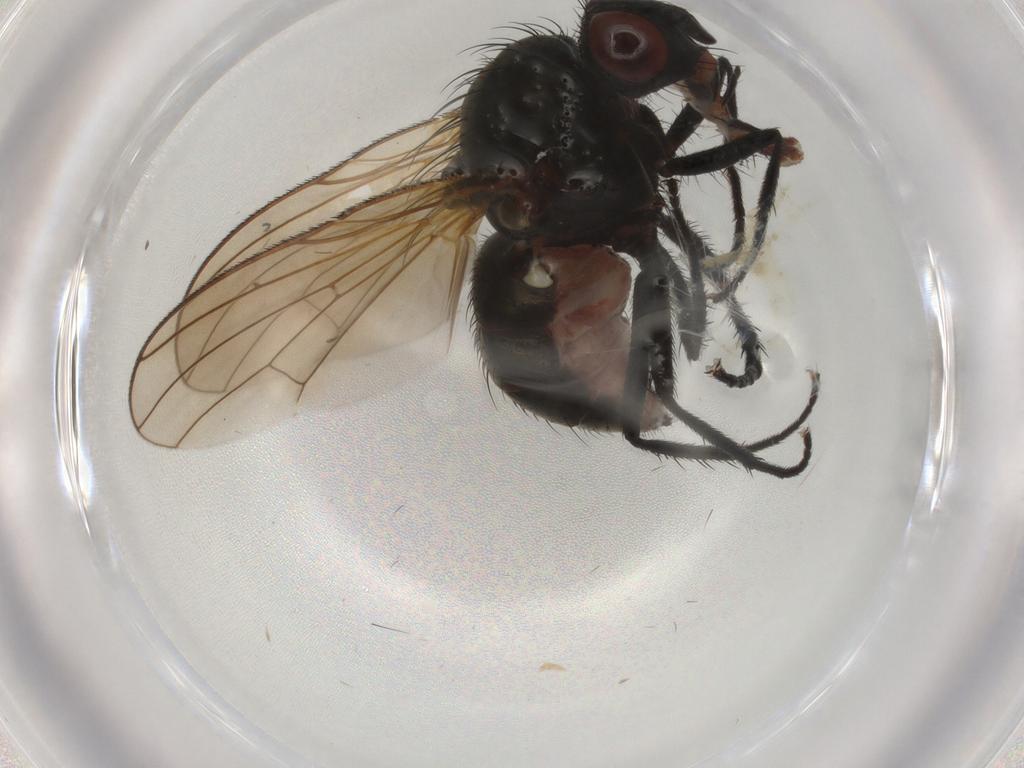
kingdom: Animalia
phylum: Arthropoda
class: Insecta
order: Diptera
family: Anthomyiidae
